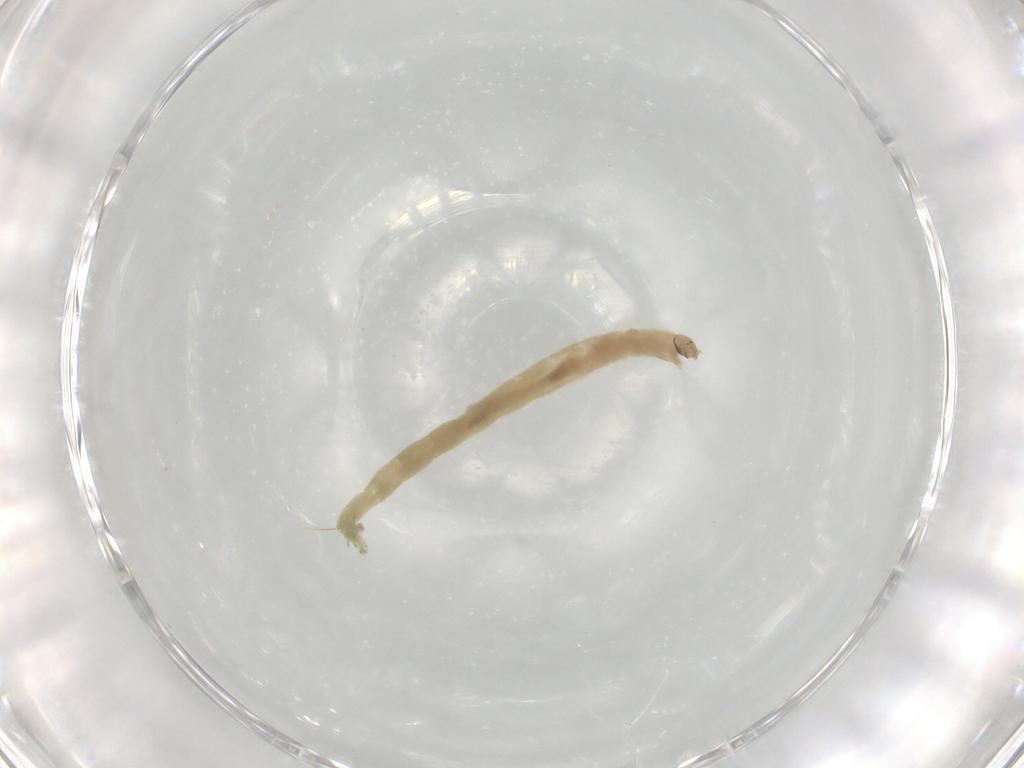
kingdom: Animalia
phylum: Arthropoda
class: Insecta
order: Diptera
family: Chironomidae
